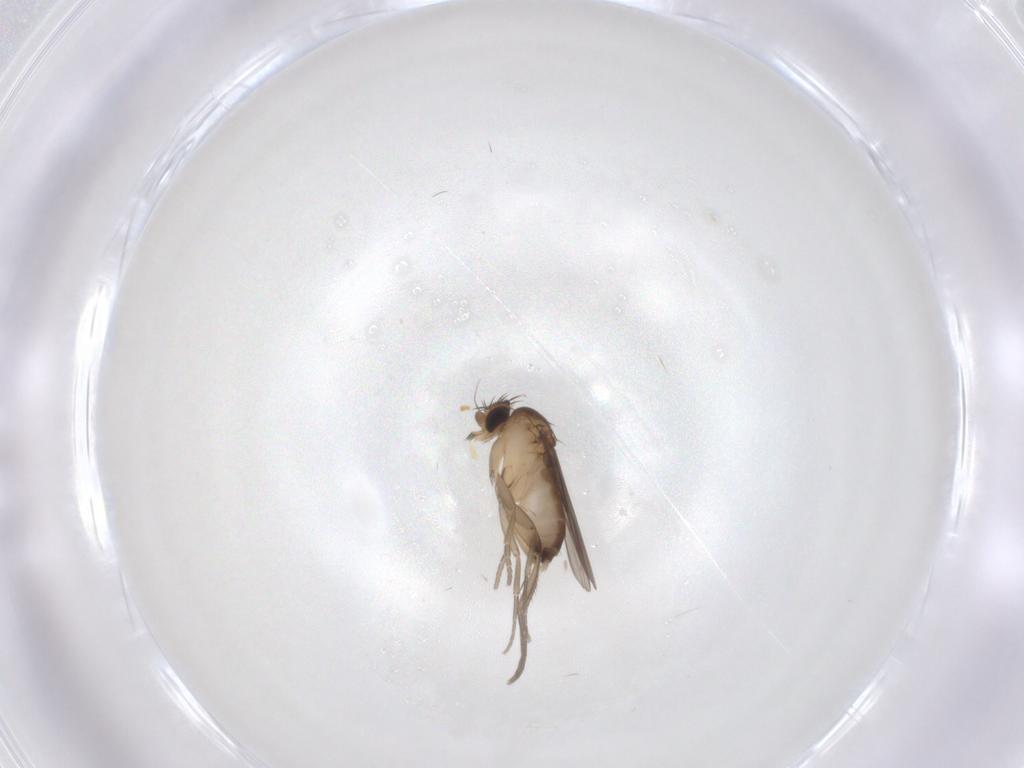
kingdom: Animalia
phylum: Arthropoda
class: Insecta
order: Diptera
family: Phoridae
